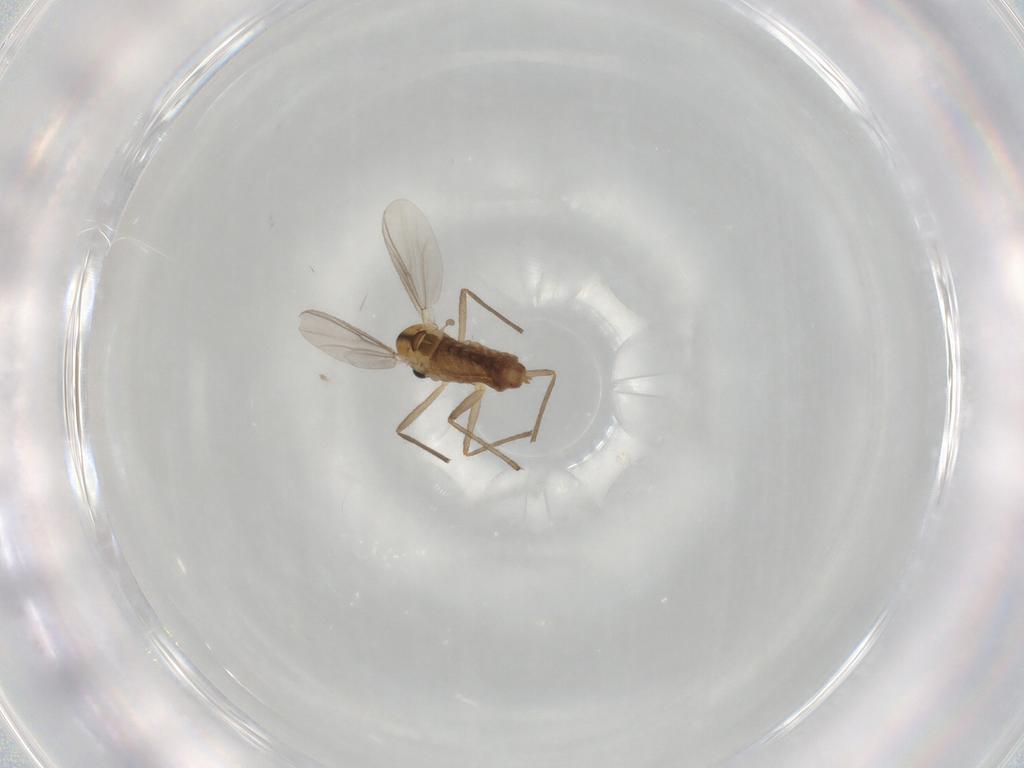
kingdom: Animalia
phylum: Arthropoda
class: Insecta
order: Diptera
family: Dolichopodidae
